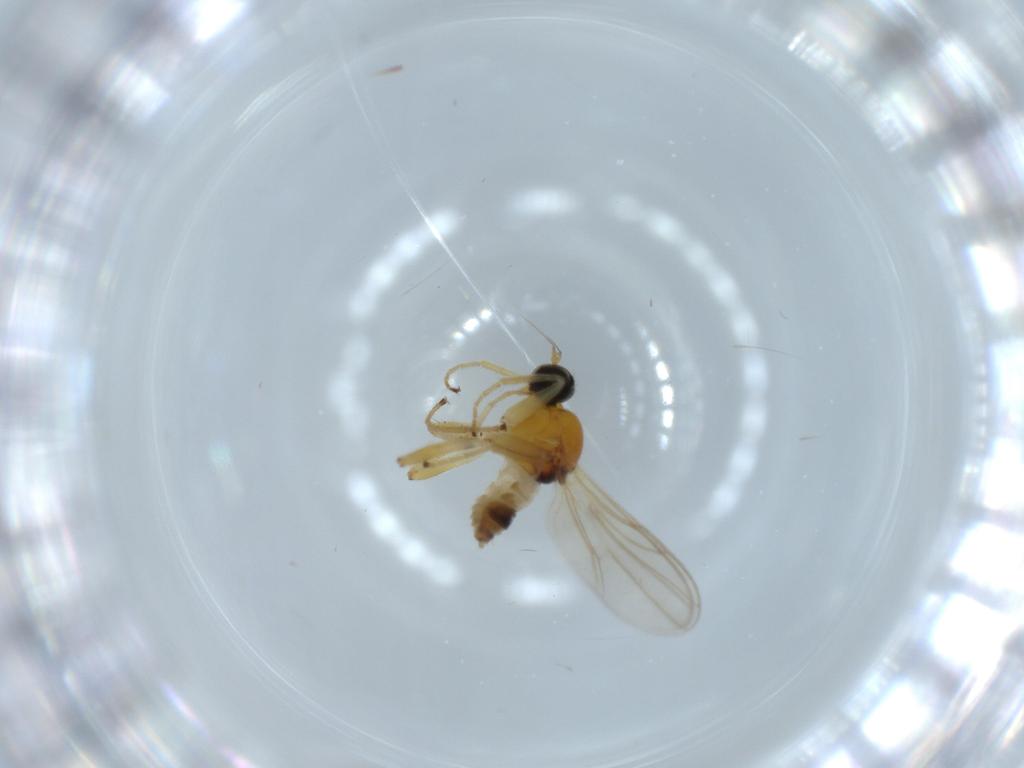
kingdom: Animalia
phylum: Arthropoda
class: Insecta
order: Diptera
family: Hybotidae
